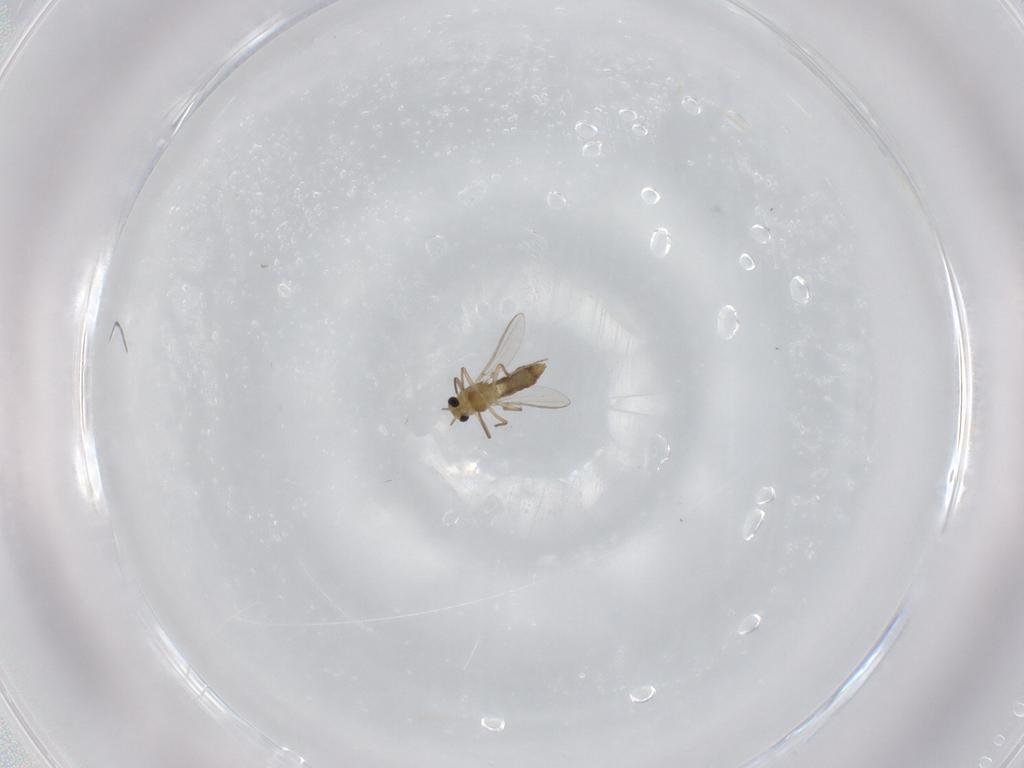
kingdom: Animalia
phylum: Arthropoda
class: Insecta
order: Diptera
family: Chironomidae
